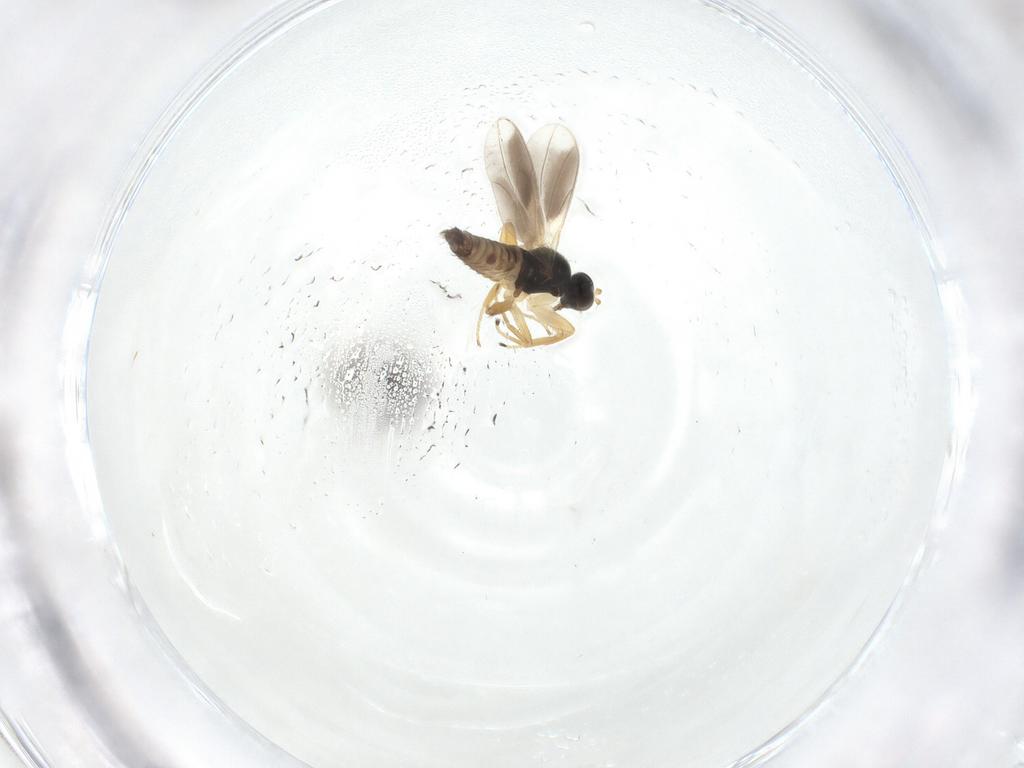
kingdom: Animalia
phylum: Arthropoda
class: Insecta
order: Diptera
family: Hybotidae
